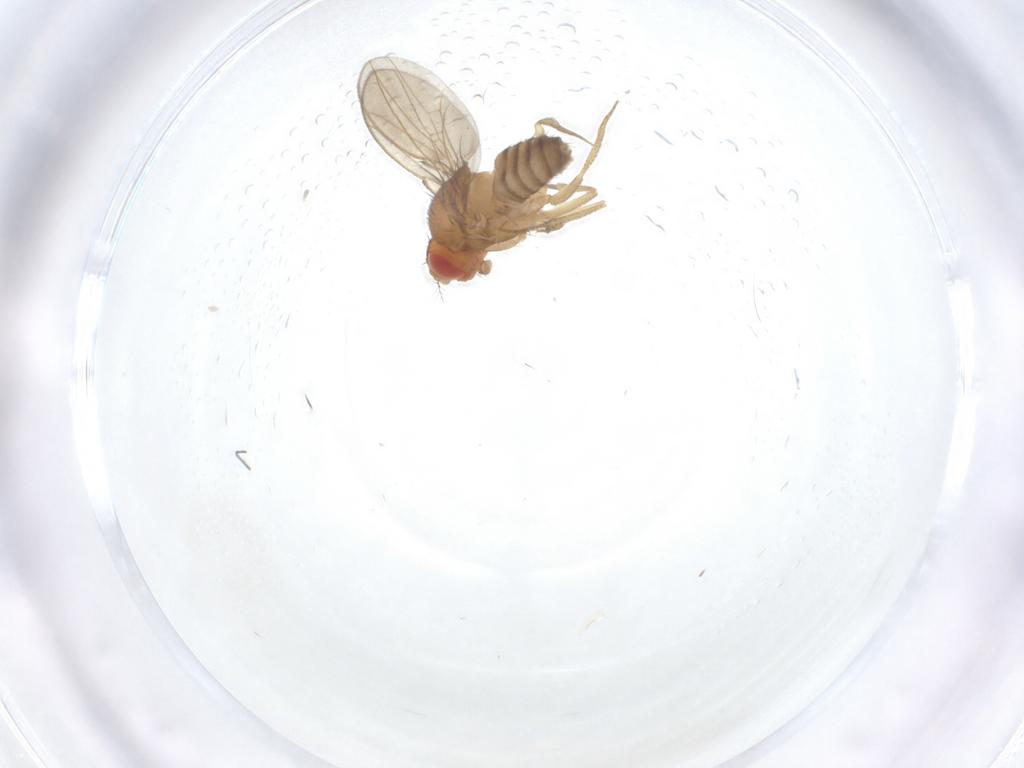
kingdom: Animalia
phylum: Arthropoda
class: Insecta
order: Diptera
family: Drosophilidae
